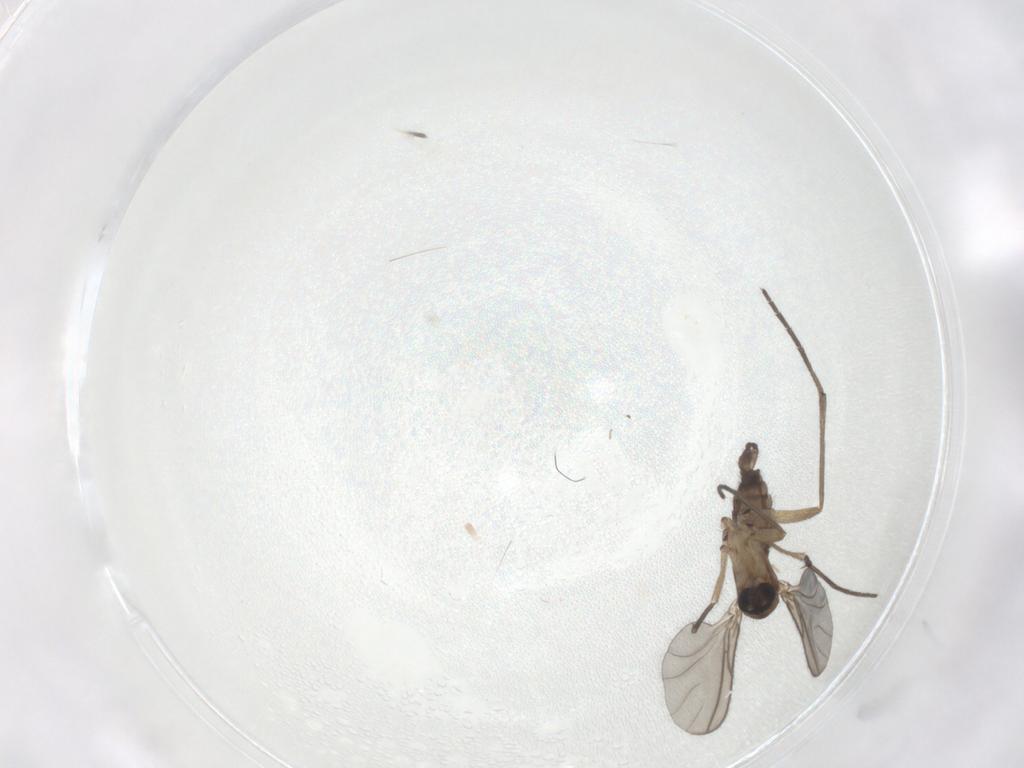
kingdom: Animalia
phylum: Arthropoda
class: Insecta
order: Diptera
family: Sciaridae
